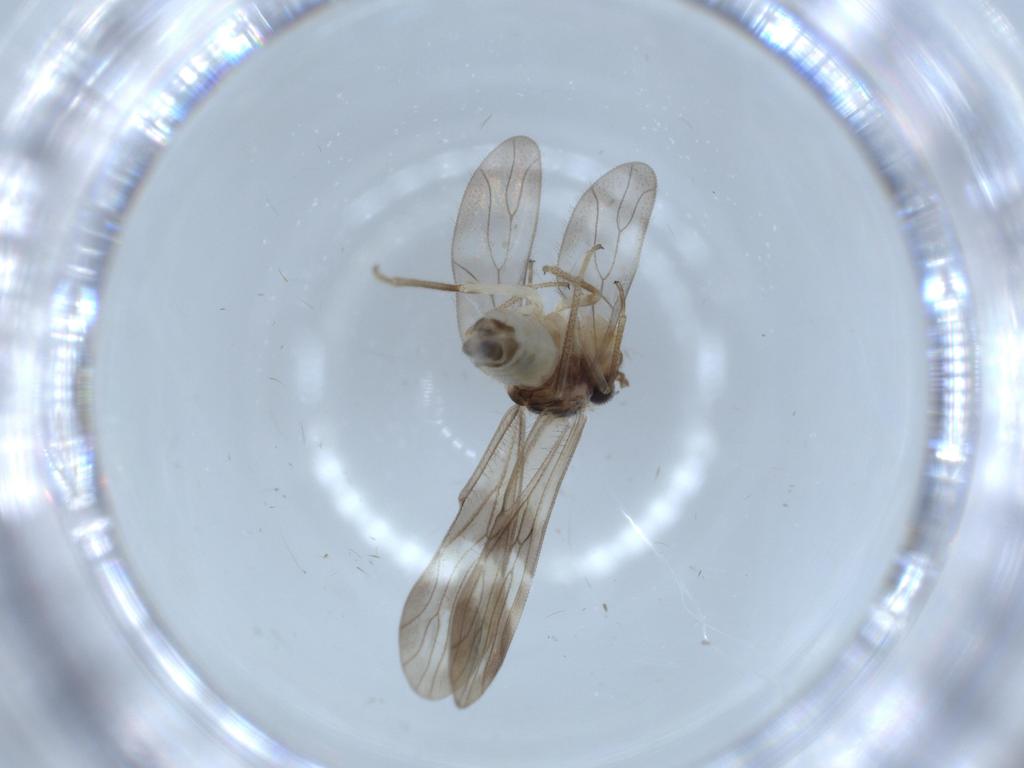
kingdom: Animalia
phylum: Arthropoda
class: Insecta
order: Psocodea
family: Amphipsocidae
